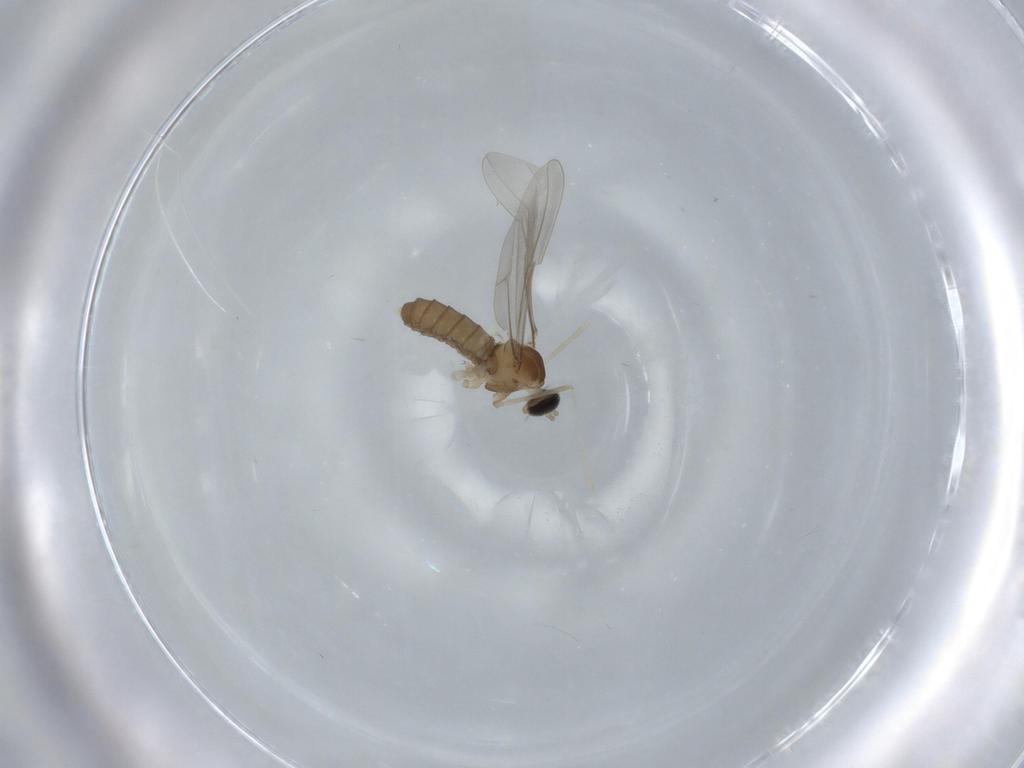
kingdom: Animalia
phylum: Arthropoda
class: Insecta
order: Diptera
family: Cecidomyiidae
